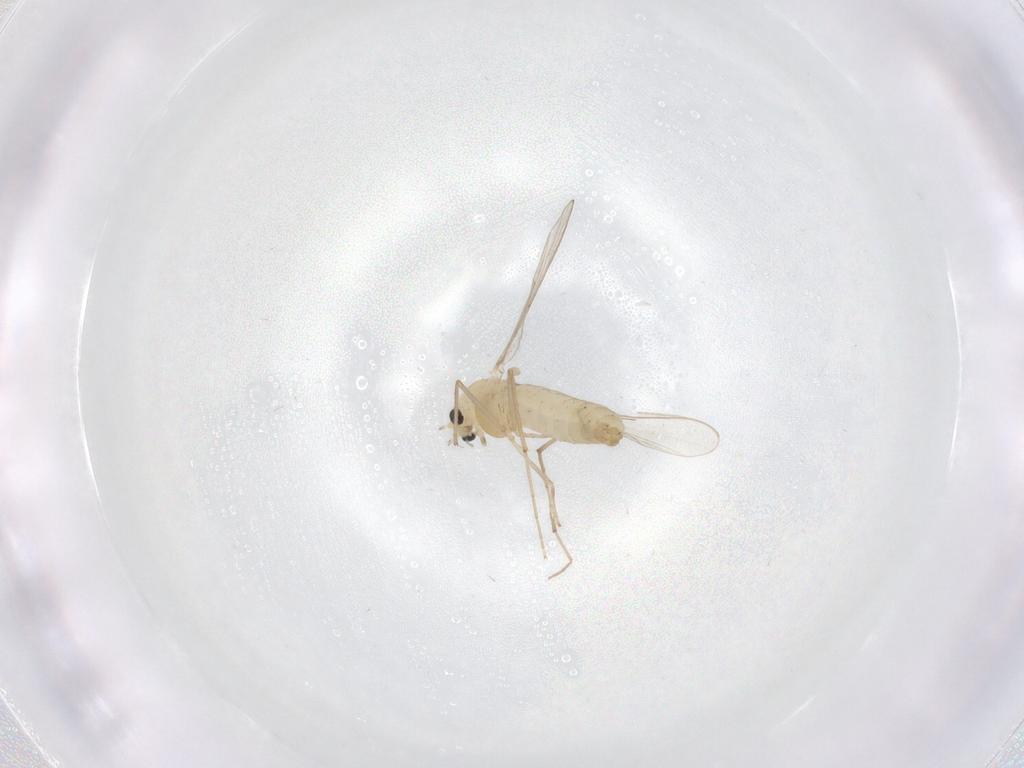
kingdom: Animalia
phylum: Arthropoda
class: Insecta
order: Diptera
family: Chironomidae
